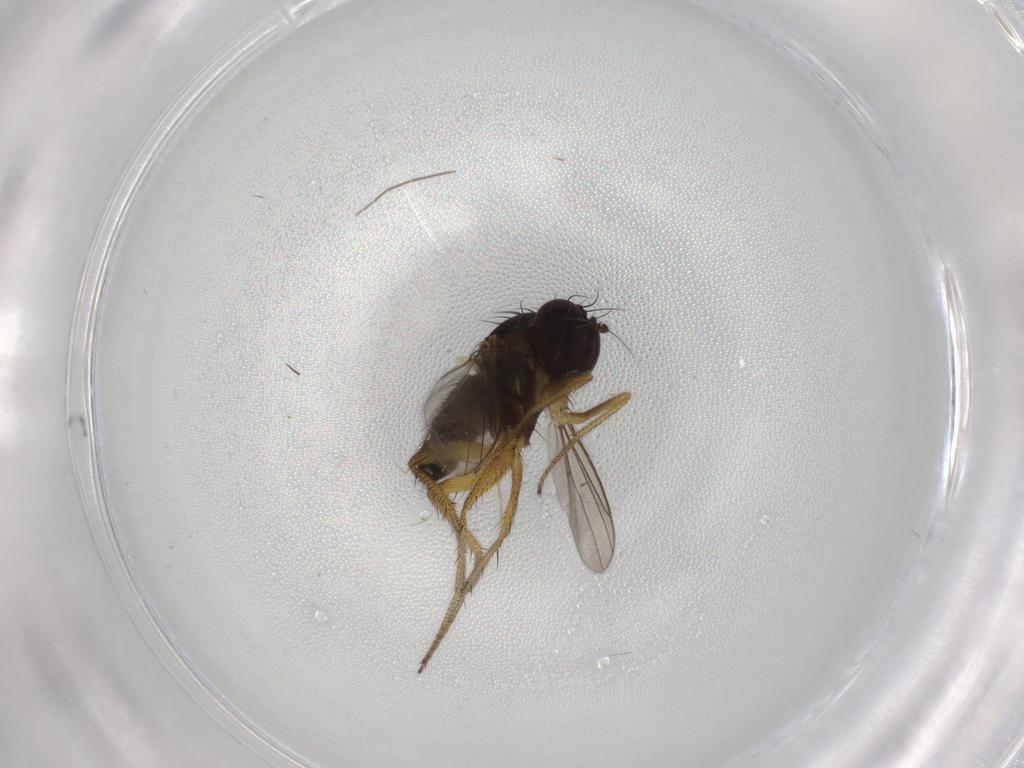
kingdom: Animalia
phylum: Arthropoda
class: Insecta
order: Diptera
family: Dolichopodidae
